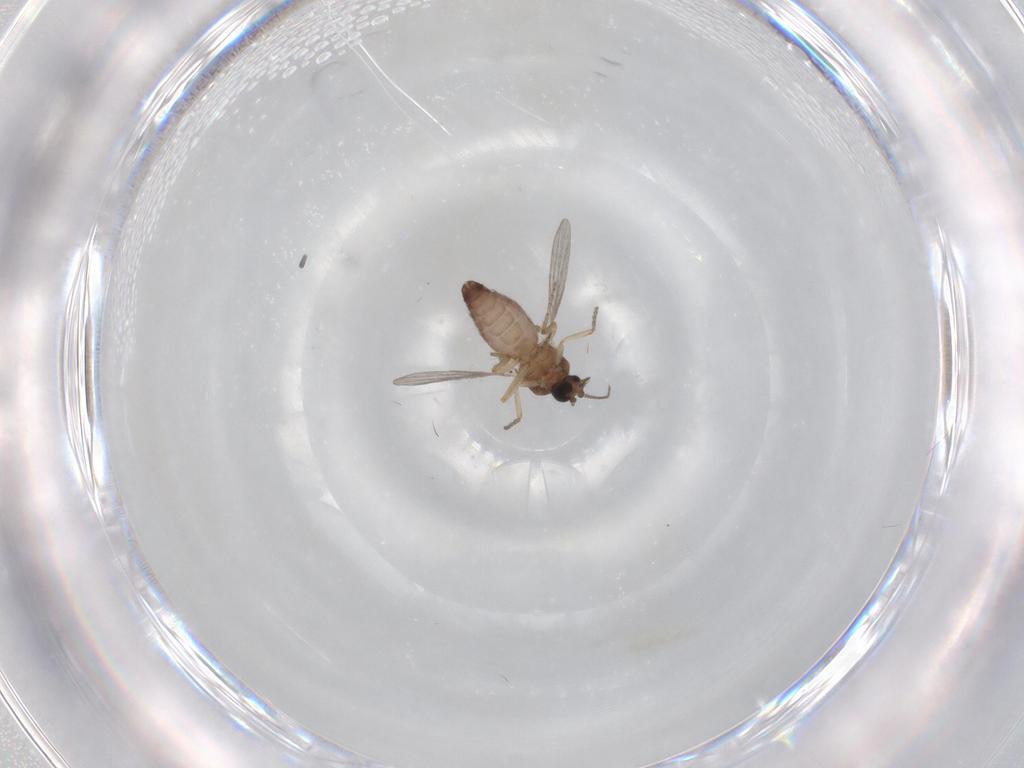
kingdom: Animalia
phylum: Arthropoda
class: Insecta
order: Diptera
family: Ceratopogonidae
